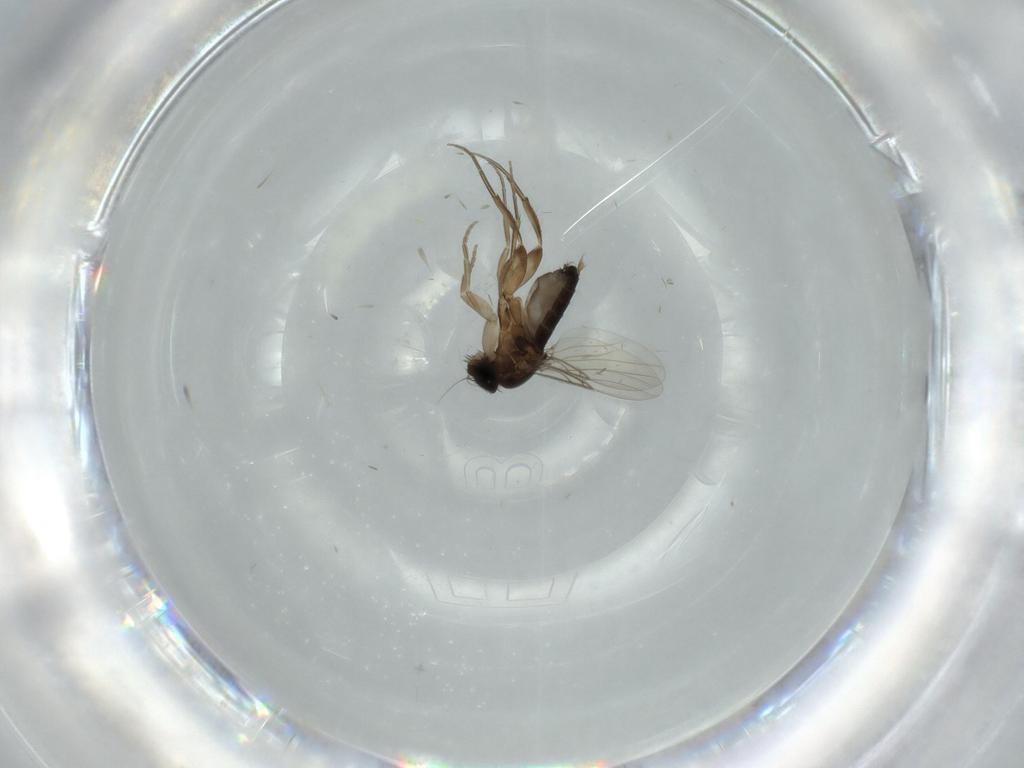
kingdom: Animalia
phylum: Arthropoda
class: Insecta
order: Diptera
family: Phoridae
